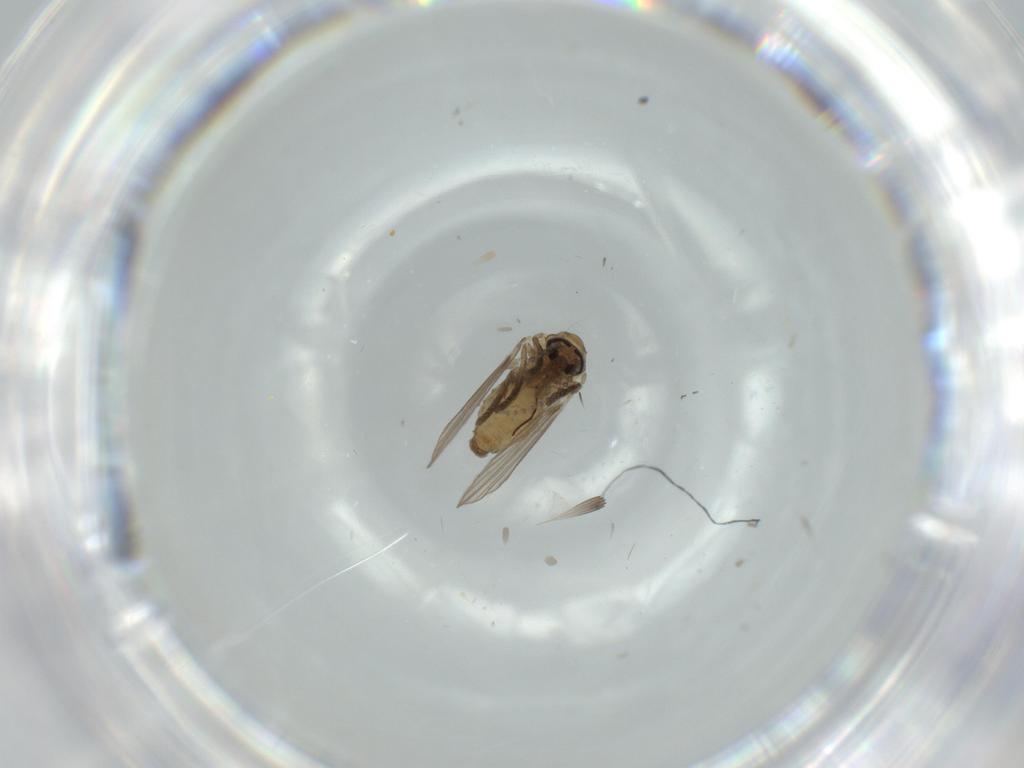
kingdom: Animalia
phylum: Arthropoda
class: Insecta
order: Diptera
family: Psychodidae
